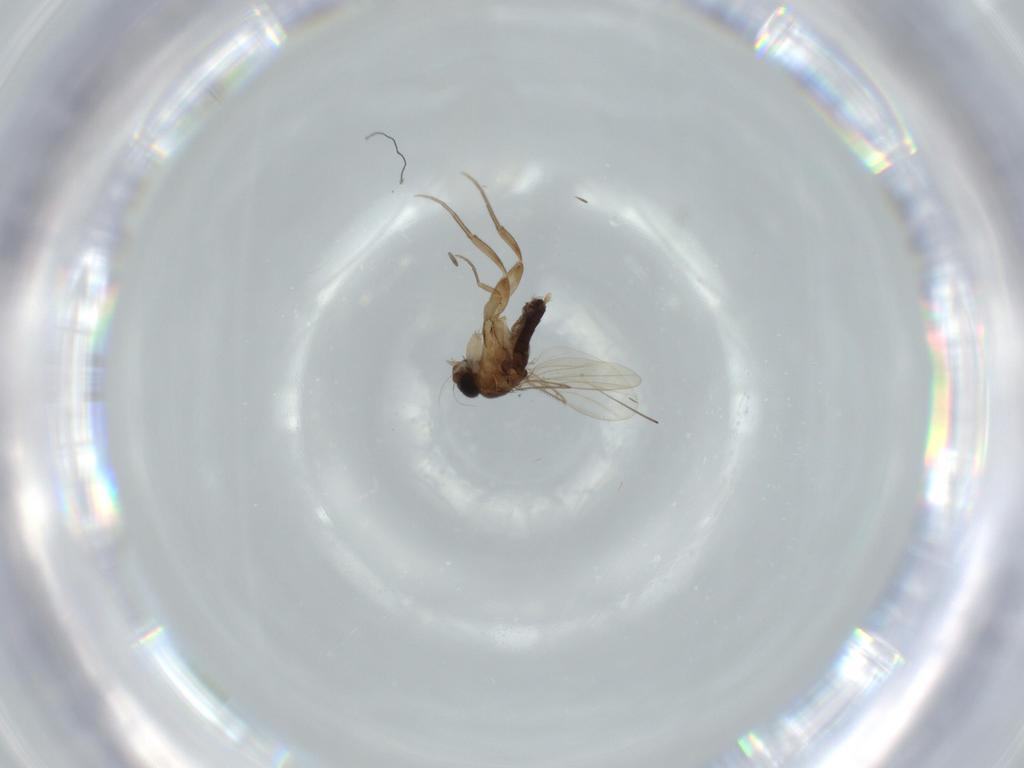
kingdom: Animalia
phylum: Arthropoda
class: Insecta
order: Diptera
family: Phoridae
